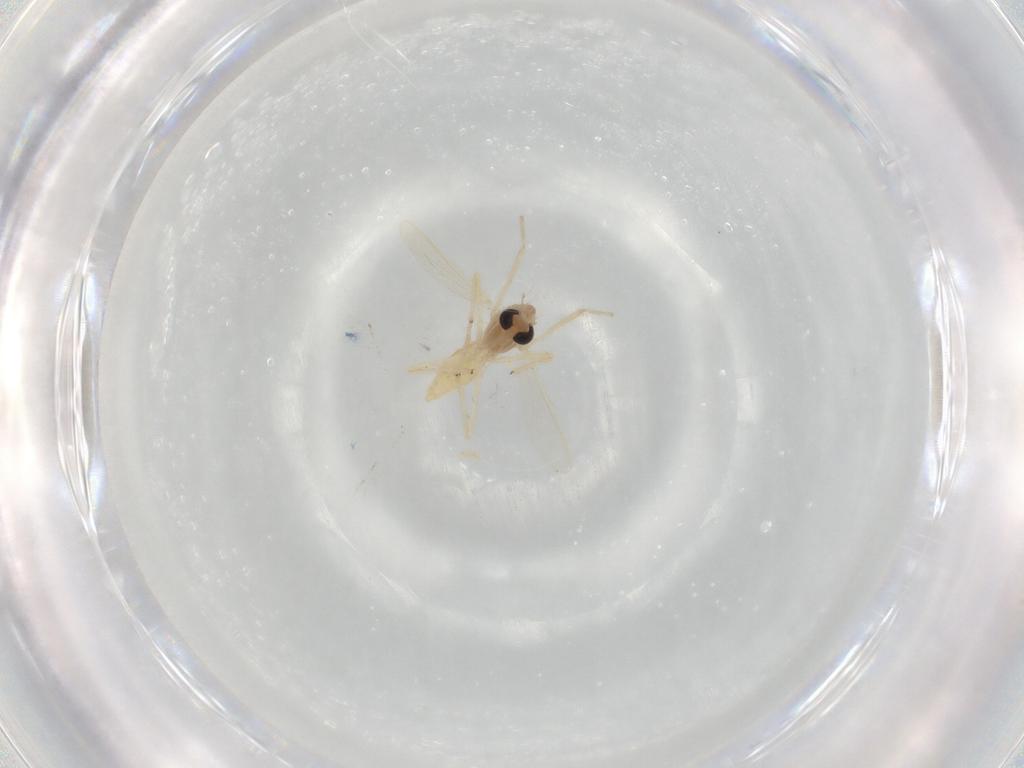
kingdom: Animalia
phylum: Arthropoda
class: Insecta
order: Diptera
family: Chironomidae
